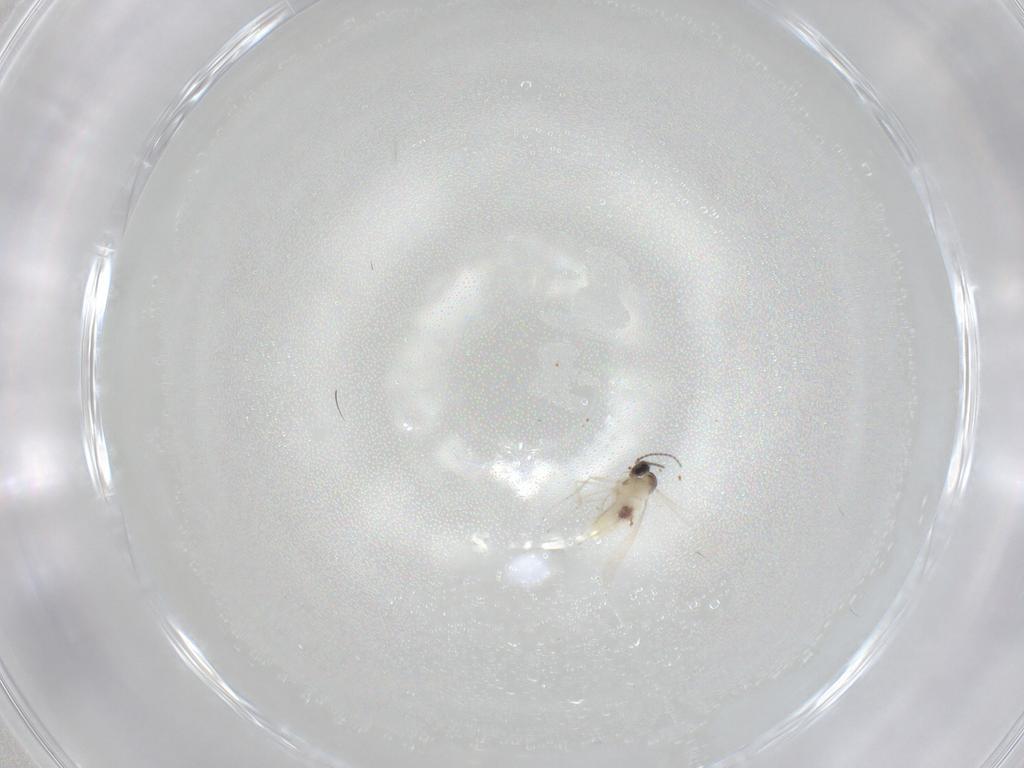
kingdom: Animalia
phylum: Arthropoda
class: Insecta
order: Diptera
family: Cecidomyiidae
